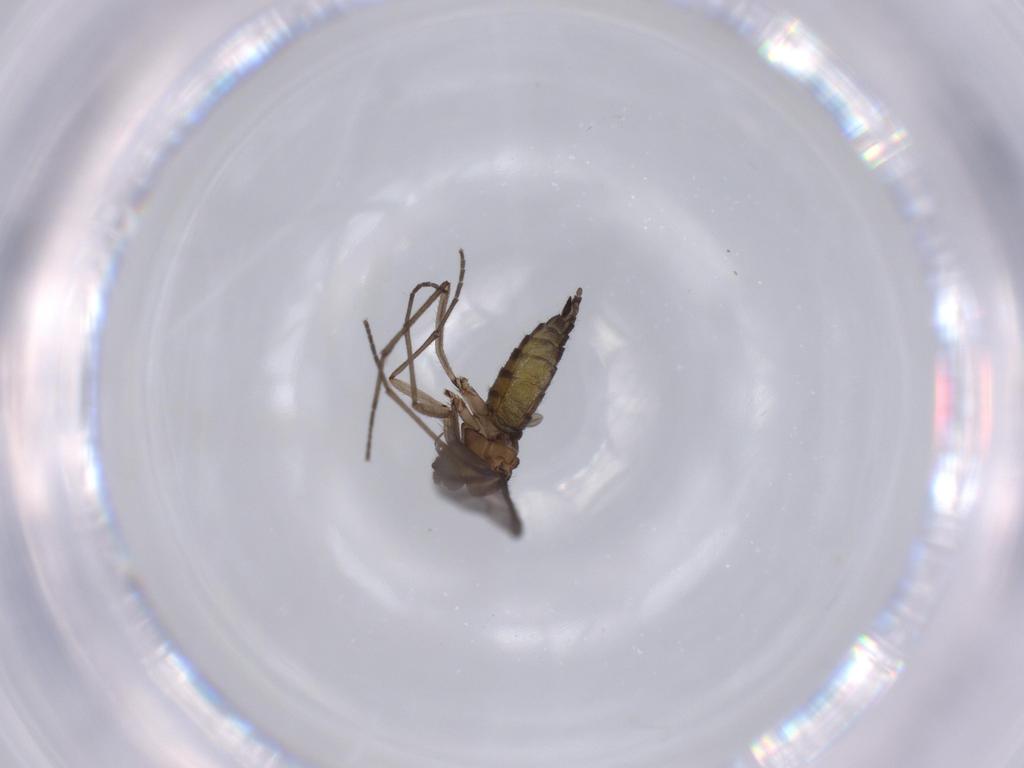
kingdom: Animalia
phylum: Arthropoda
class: Insecta
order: Diptera
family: Sciaridae
